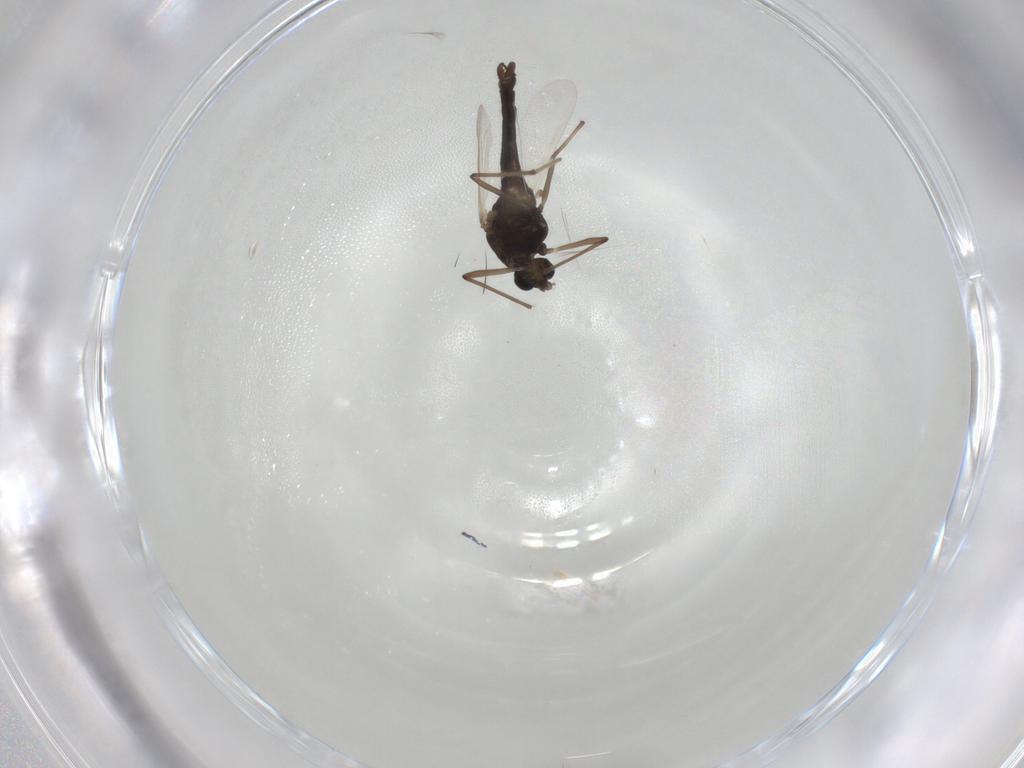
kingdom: Animalia
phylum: Arthropoda
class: Insecta
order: Diptera
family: Chironomidae
